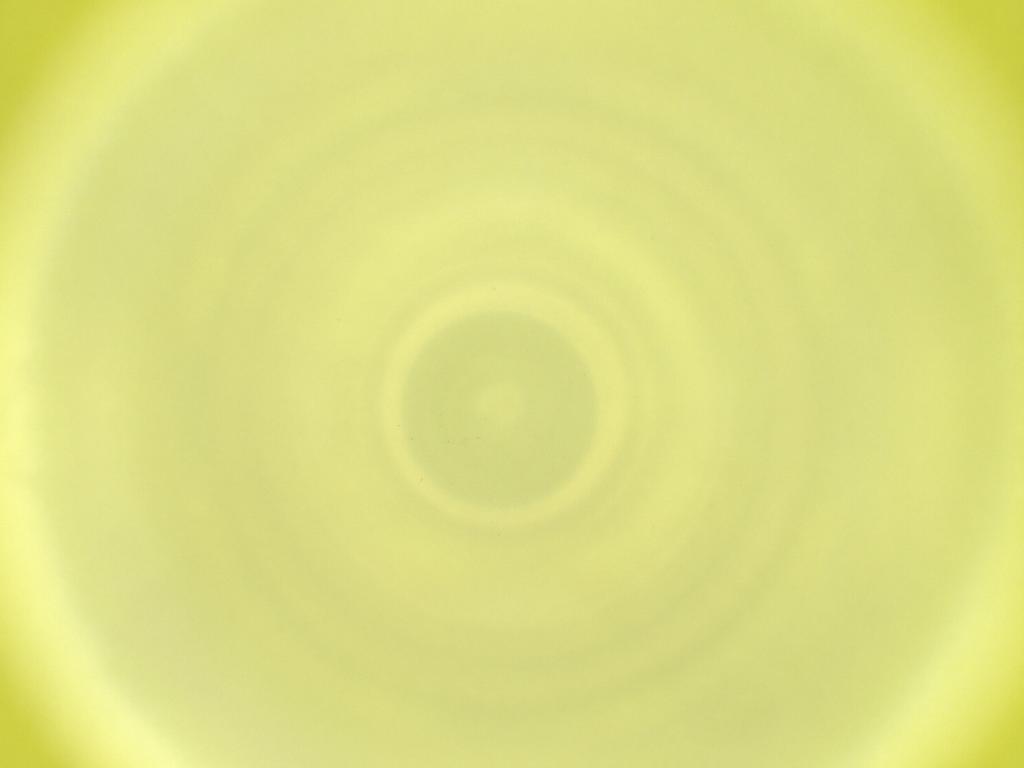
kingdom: Animalia
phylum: Arthropoda
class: Insecta
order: Diptera
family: Cecidomyiidae
